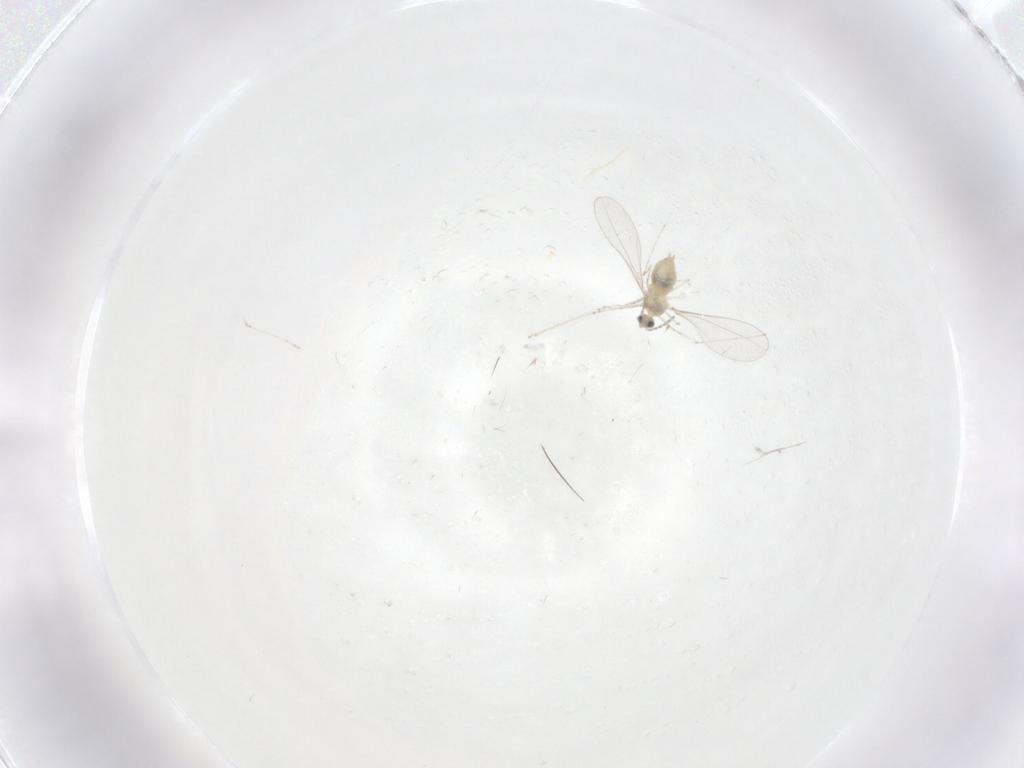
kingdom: Animalia
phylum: Arthropoda
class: Insecta
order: Diptera
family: Cecidomyiidae
